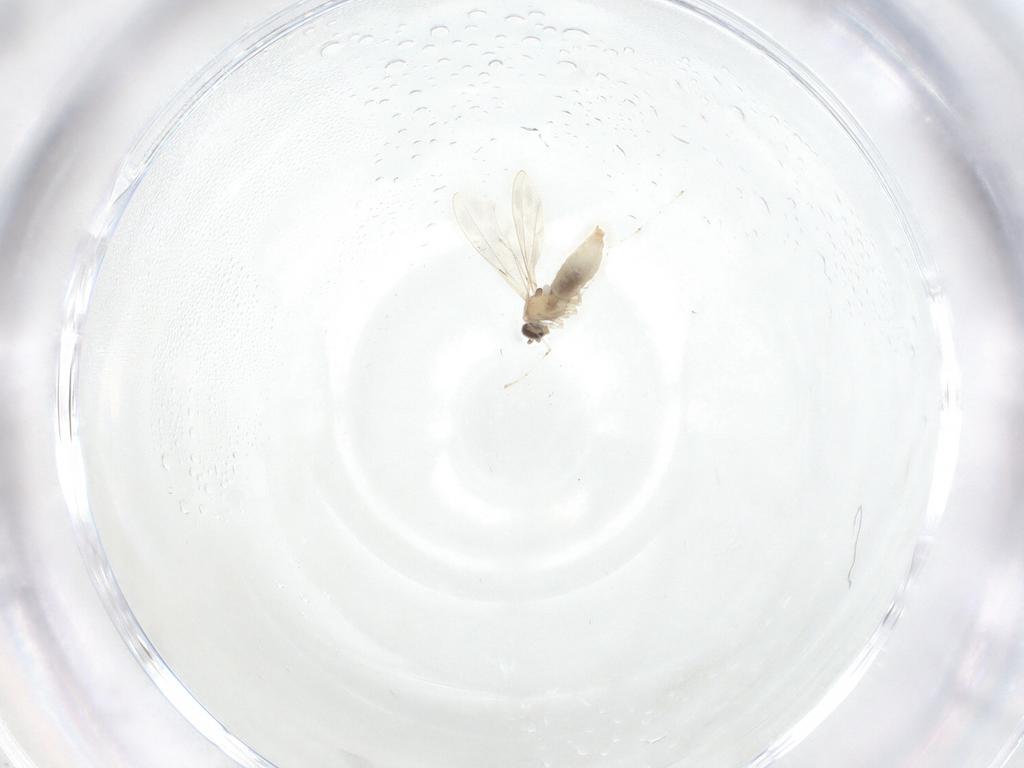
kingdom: Animalia
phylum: Arthropoda
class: Insecta
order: Diptera
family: Cecidomyiidae
